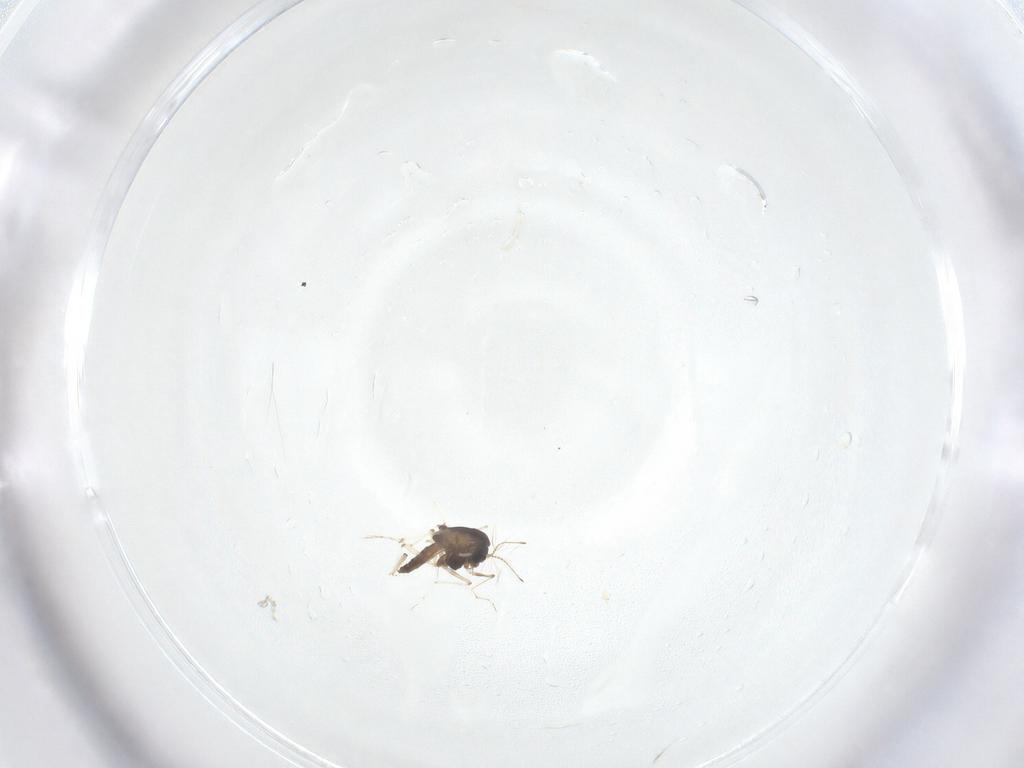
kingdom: Animalia
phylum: Arthropoda
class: Insecta
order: Diptera
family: Chironomidae
